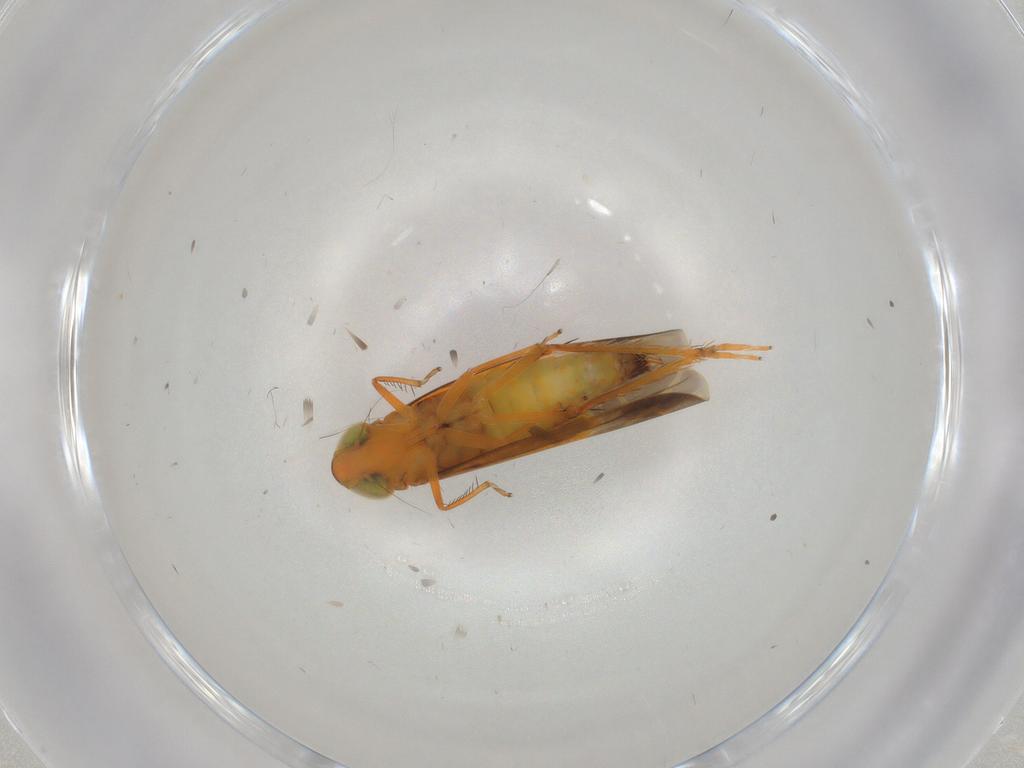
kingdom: Animalia
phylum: Arthropoda
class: Insecta
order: Hemiptera
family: Cicadellidae
